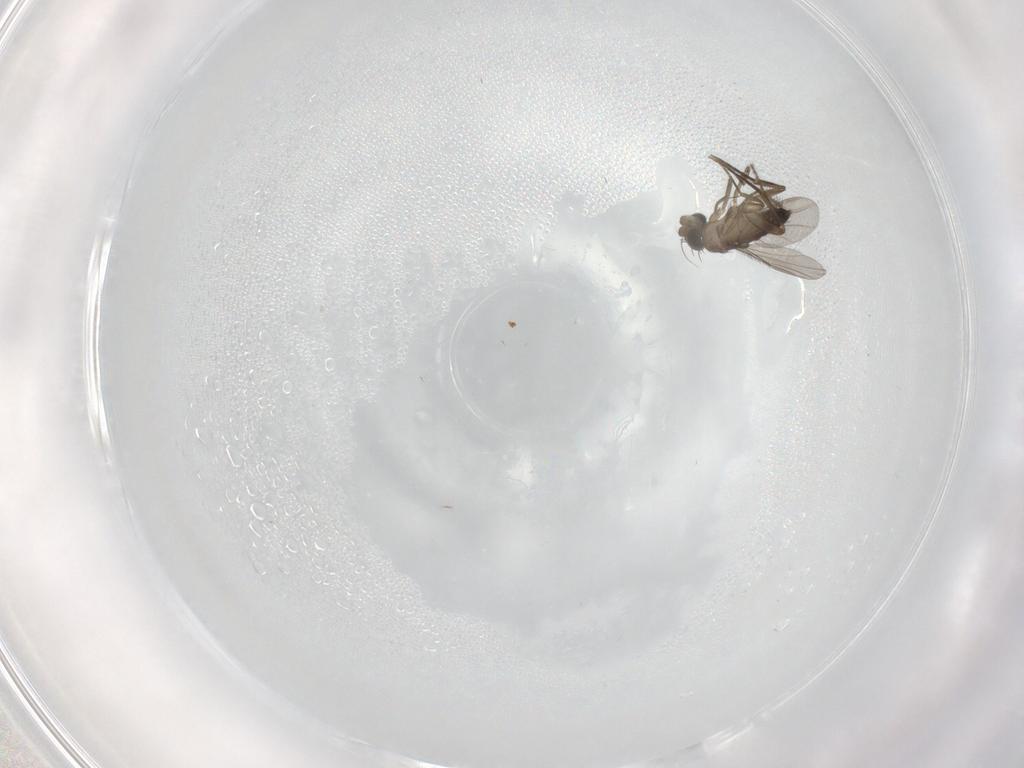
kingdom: Animalia
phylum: Arthropoda
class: Insecta
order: Diptera
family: Phoridae
